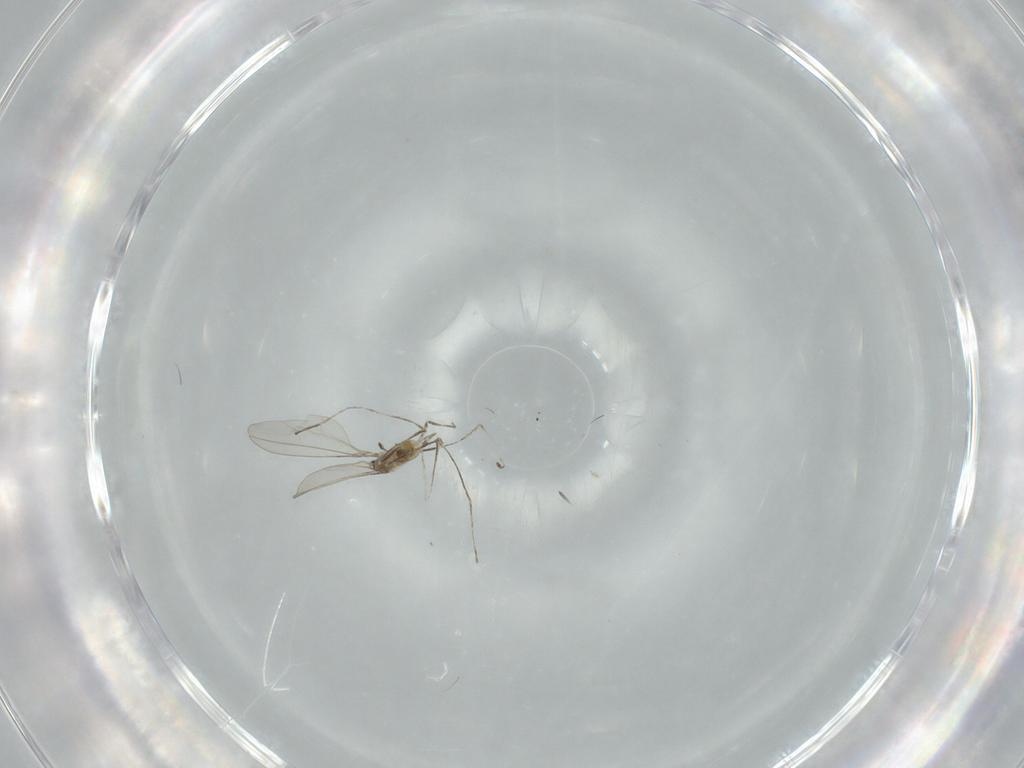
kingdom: Animalia
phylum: Arthropoda
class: Insecta
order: Diptera
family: Cecidomyiidae
